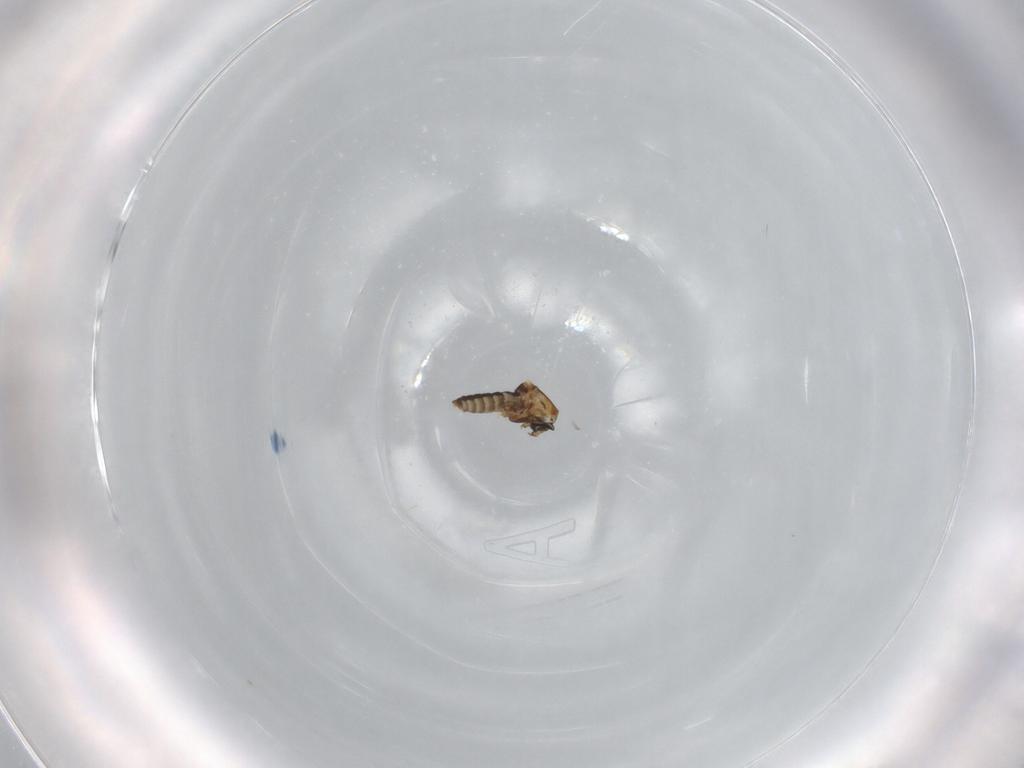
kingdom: Animalia
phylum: Arthropoda
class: Insecta
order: Diptera
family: Ceratopogonidae
